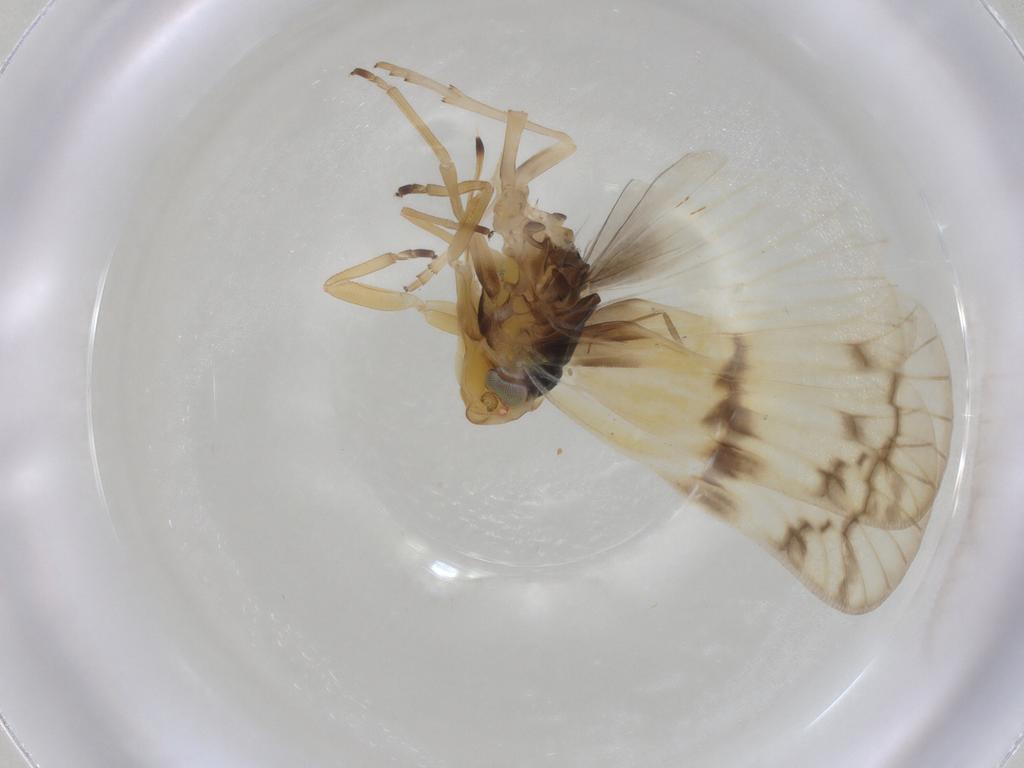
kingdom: Animalia
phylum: Arthropoda
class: Insecta
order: Hemiptera
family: Cixiidae
